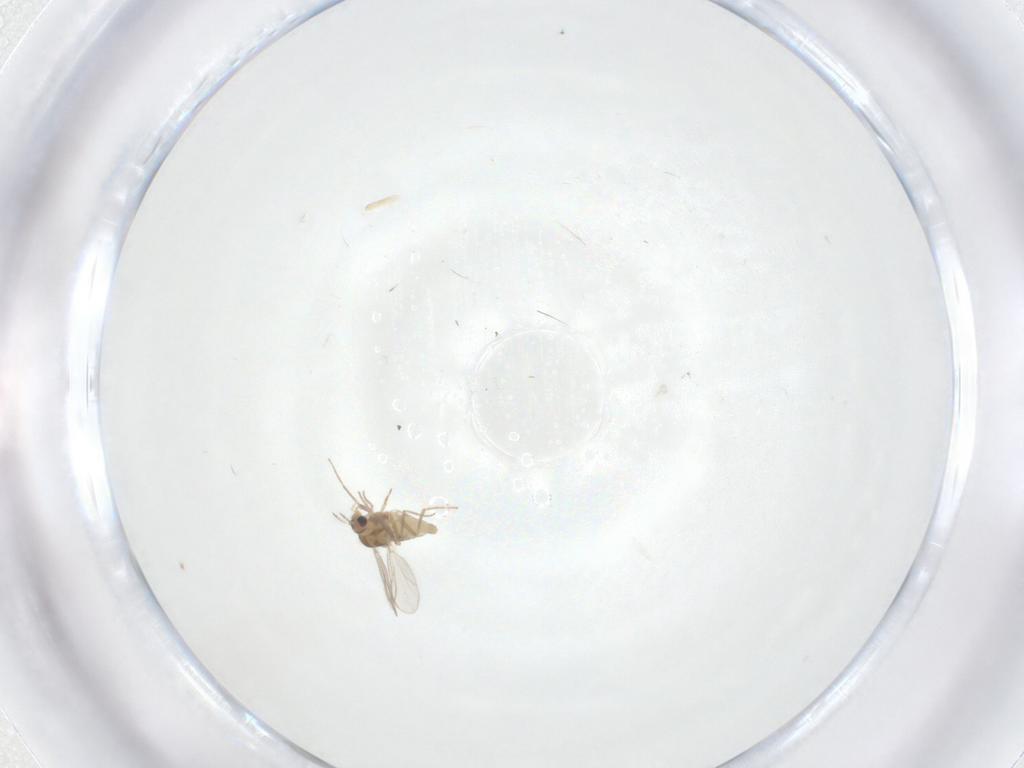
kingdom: Animalia
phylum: Arthropoda
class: Insecta
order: Diptera
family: Chironomidae
